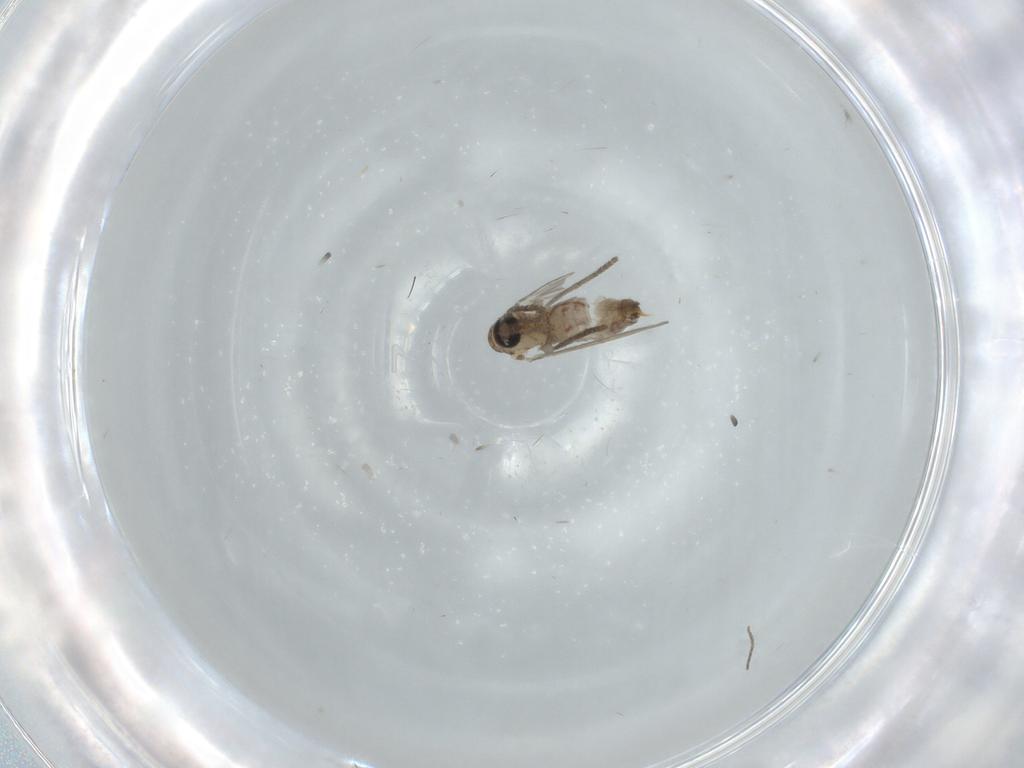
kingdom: Animalia
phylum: Arthropoda
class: Insecta
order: Diptera
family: Psychodidae
